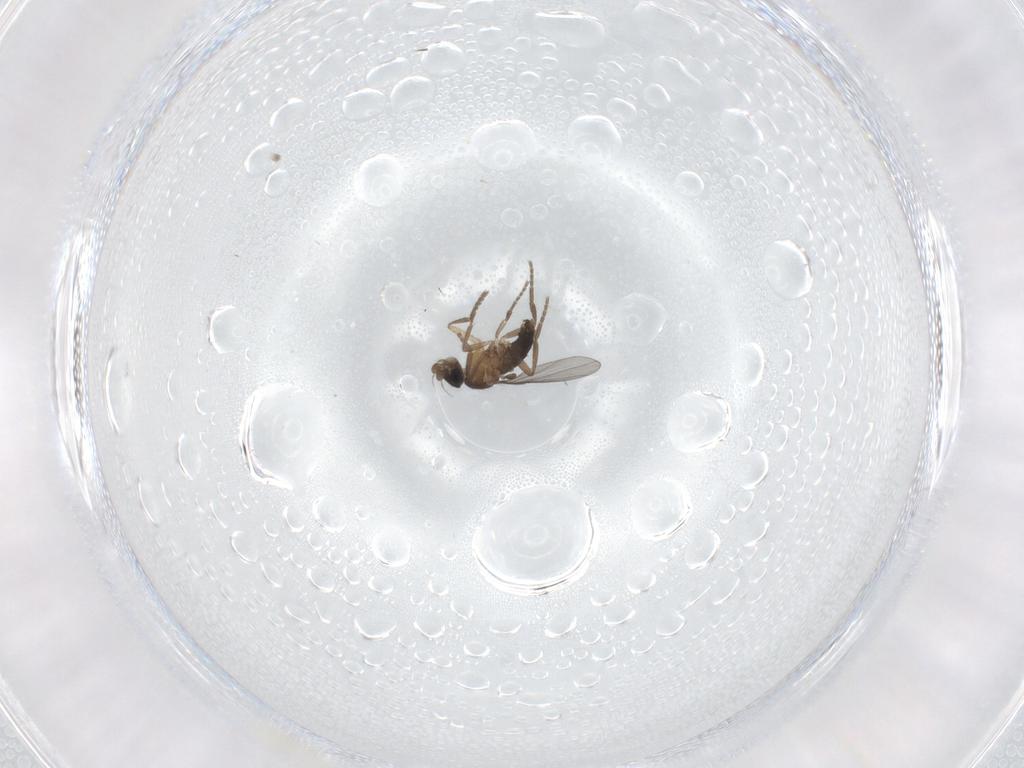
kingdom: Animalia
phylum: Arthropoda
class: Insecta
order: Diptera
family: Phoridae
